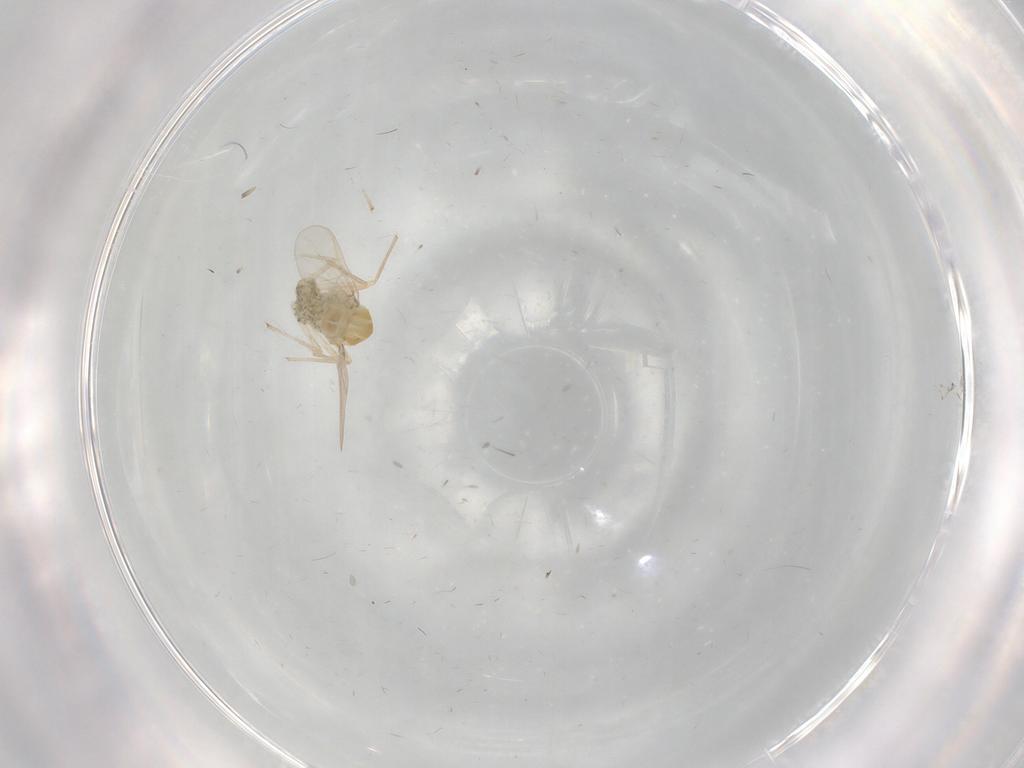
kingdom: Animalia
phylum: Arthropoda
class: Insecta
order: Diptera
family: Chironomidae
